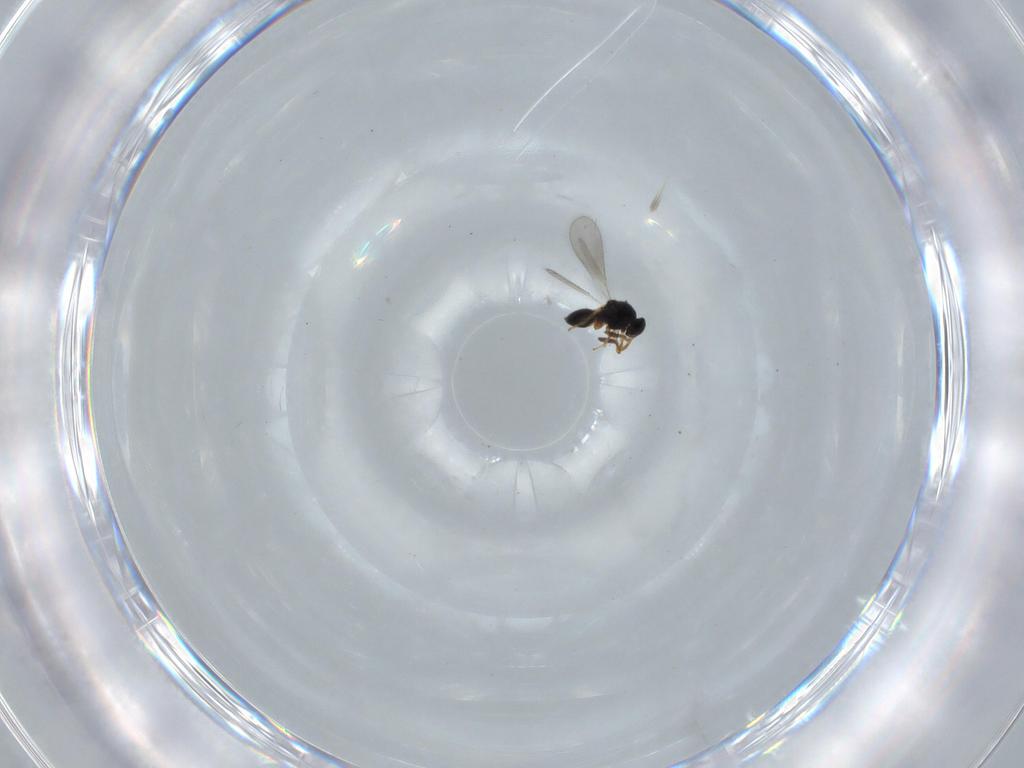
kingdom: Animalia
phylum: Arthropoda
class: Insecta
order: Hymenoptera
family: Platygastridae
